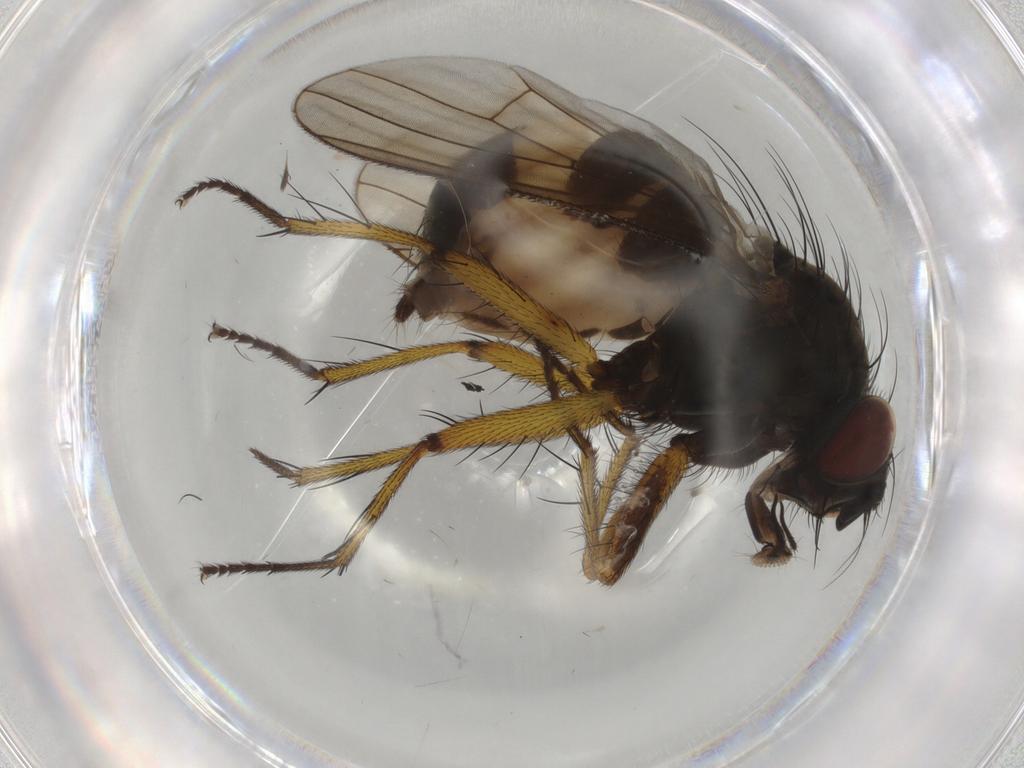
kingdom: Animalia
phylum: Arthropoda
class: Insecta
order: Diptera
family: Muscidae
